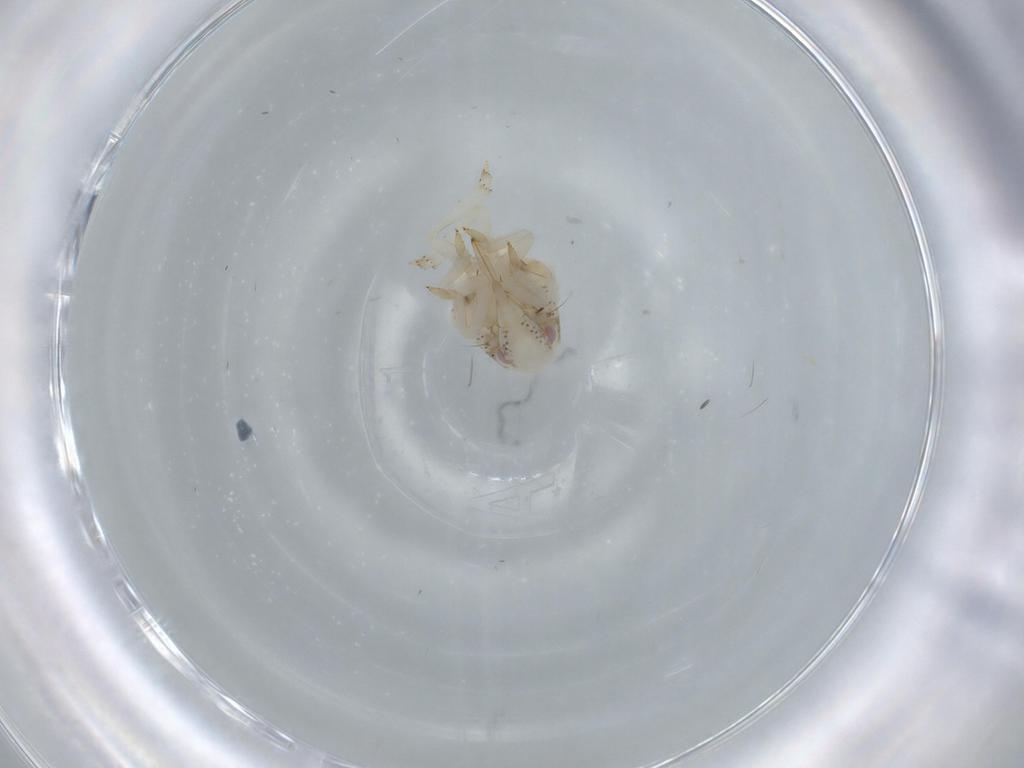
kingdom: Animalia
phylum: Arthropoda
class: Insecta
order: Hemiptera
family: Acanaloniidae
